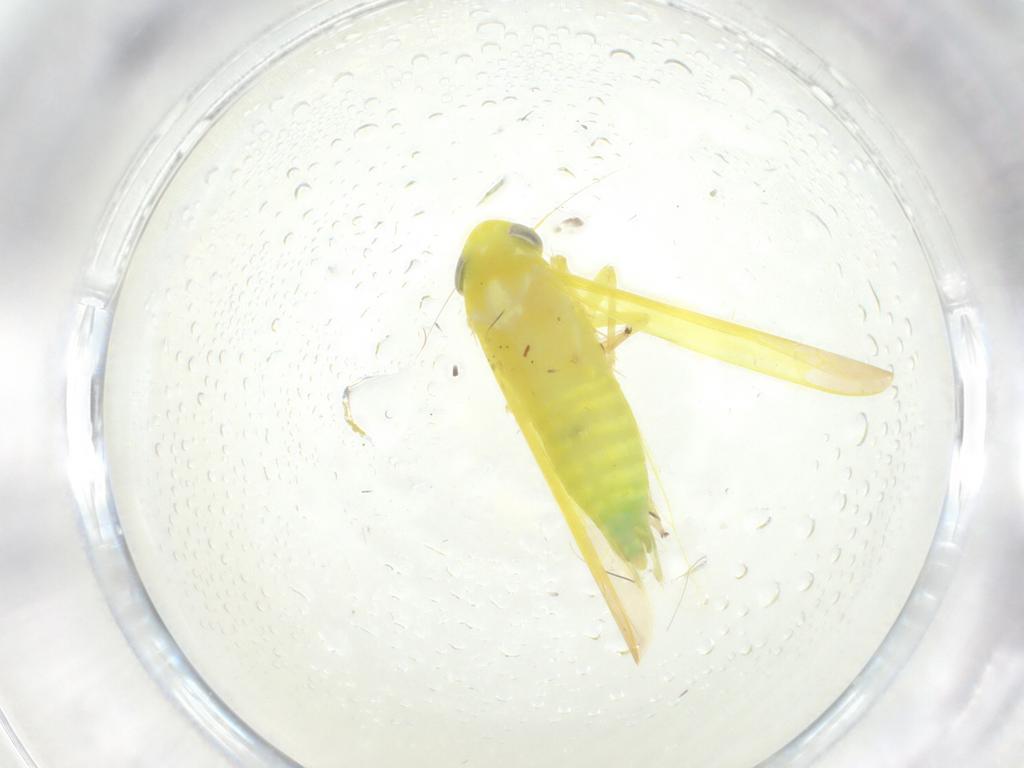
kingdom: Animalia
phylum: Arthropoda
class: Insecta
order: Hemiptera
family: Cicadellidae
